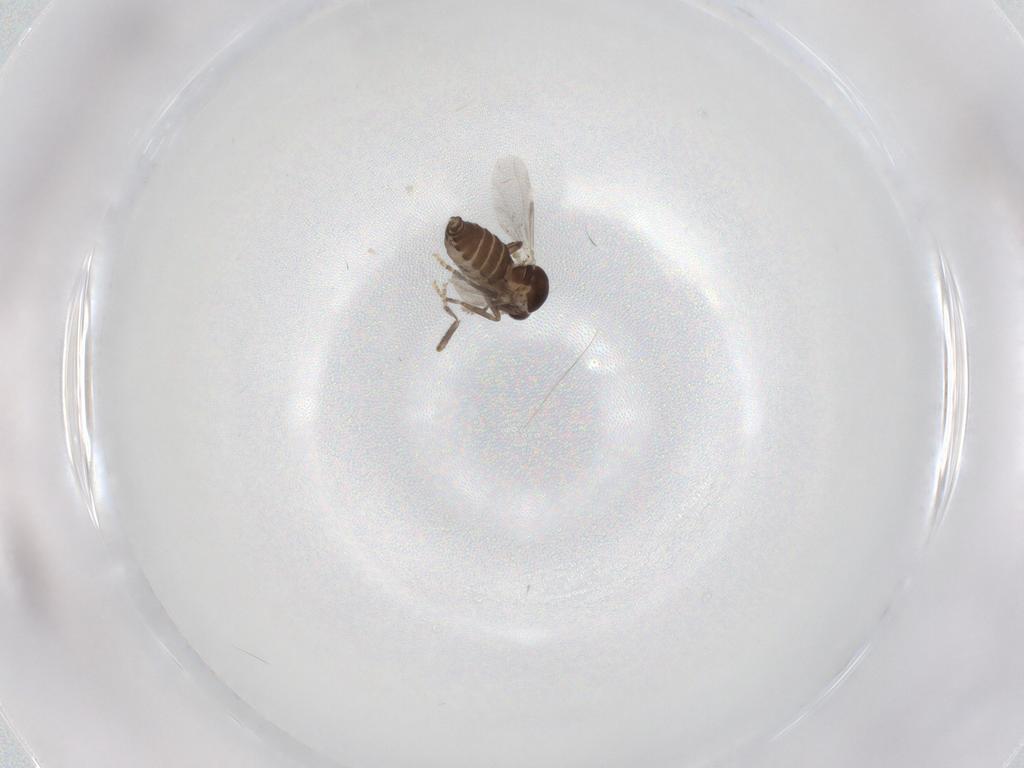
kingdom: Animalia
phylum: Arthropoda
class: Insecta
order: Diptera
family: Ceratopogonidae
